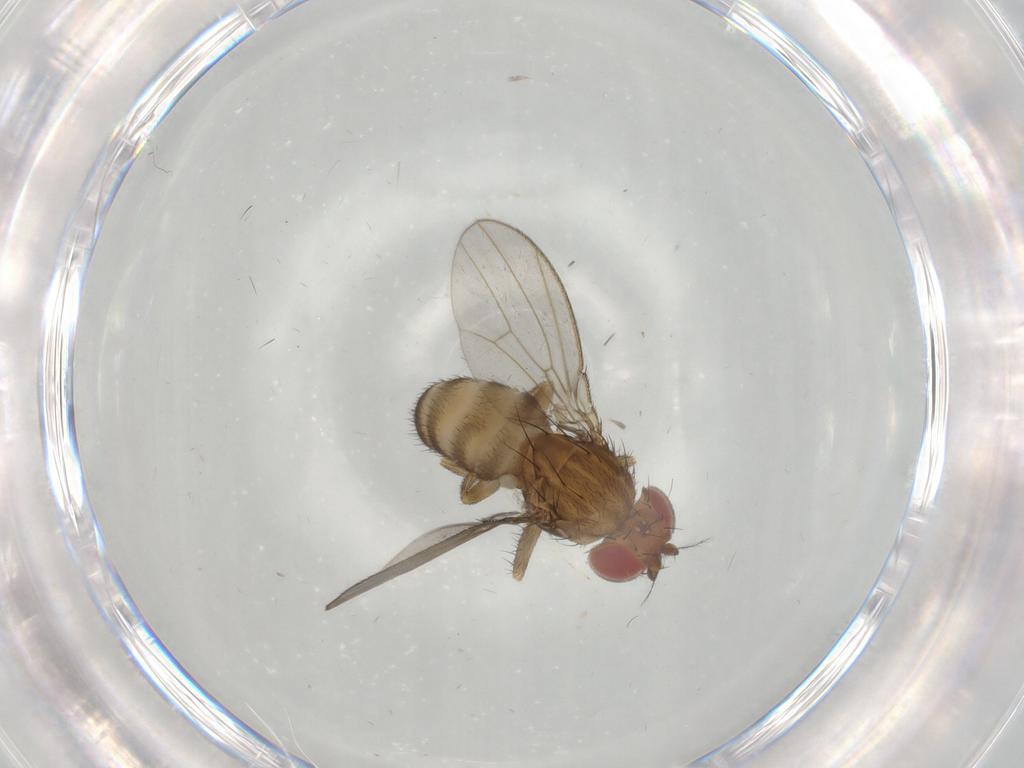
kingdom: Animalia
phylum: Arthropoda
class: Insecta
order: Diptera
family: Drosophilidae
